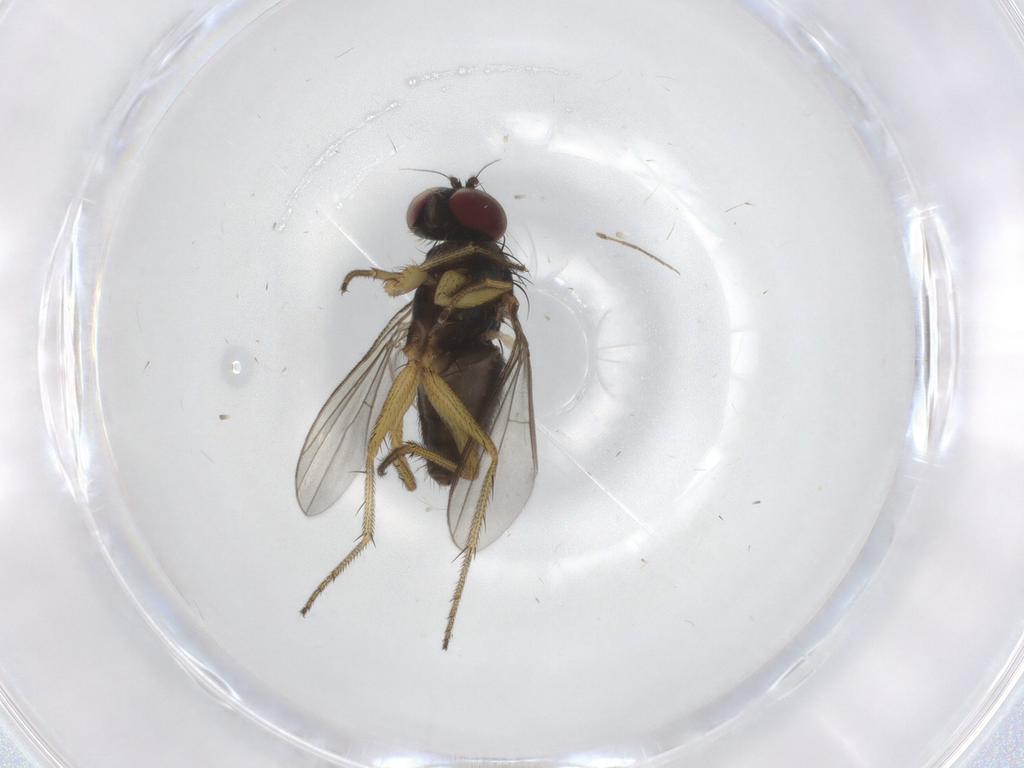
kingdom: Animalia
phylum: Arthropoda
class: Insecta
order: Diptera
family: Dolichopodidae
